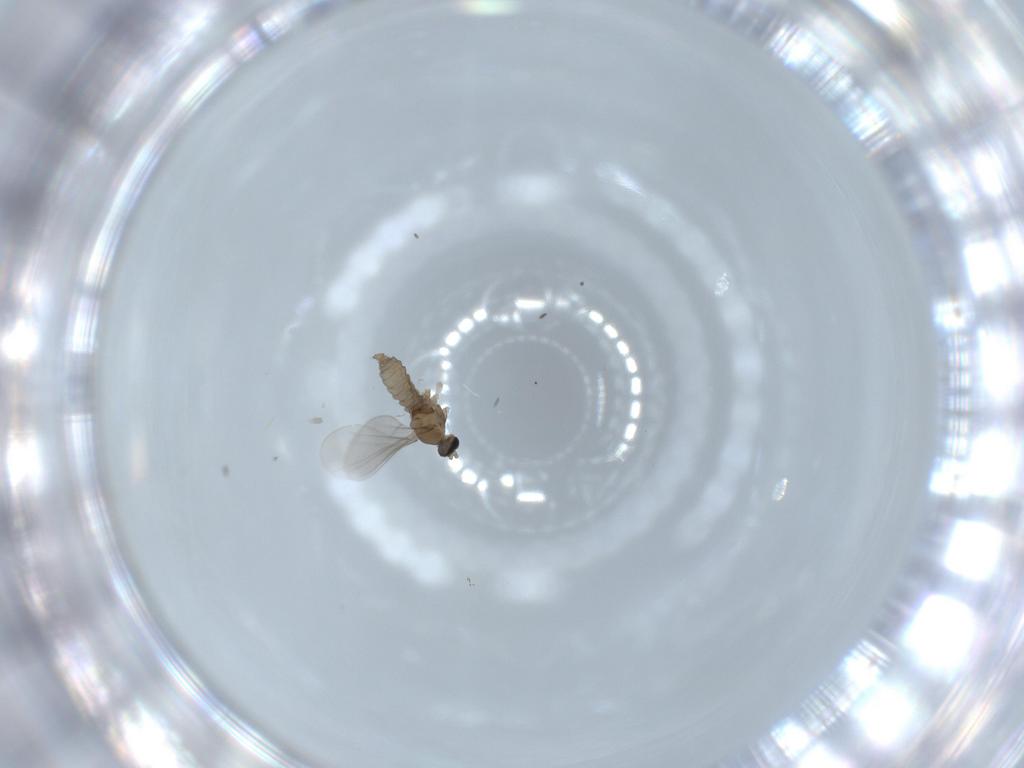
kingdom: Animalia
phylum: Arthropoda
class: Insecta
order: Diptera
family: Ceratopogonidae
